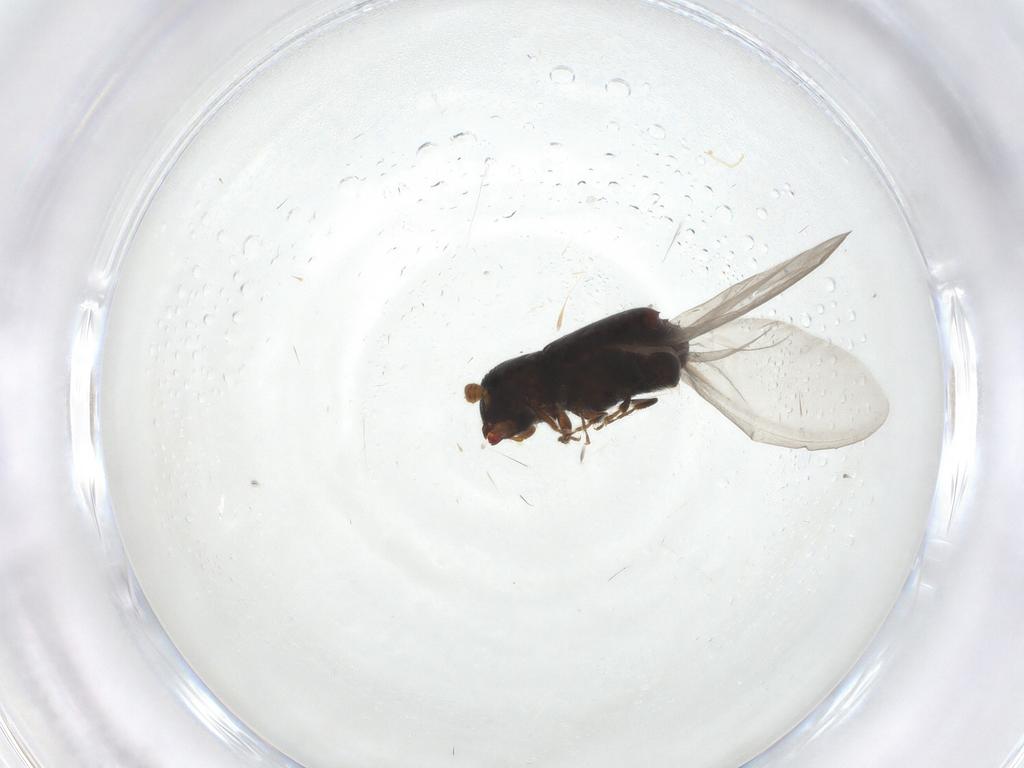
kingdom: Animalia
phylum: Arthropoda
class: Insecta
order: Coleoptera
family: Curculionidae
